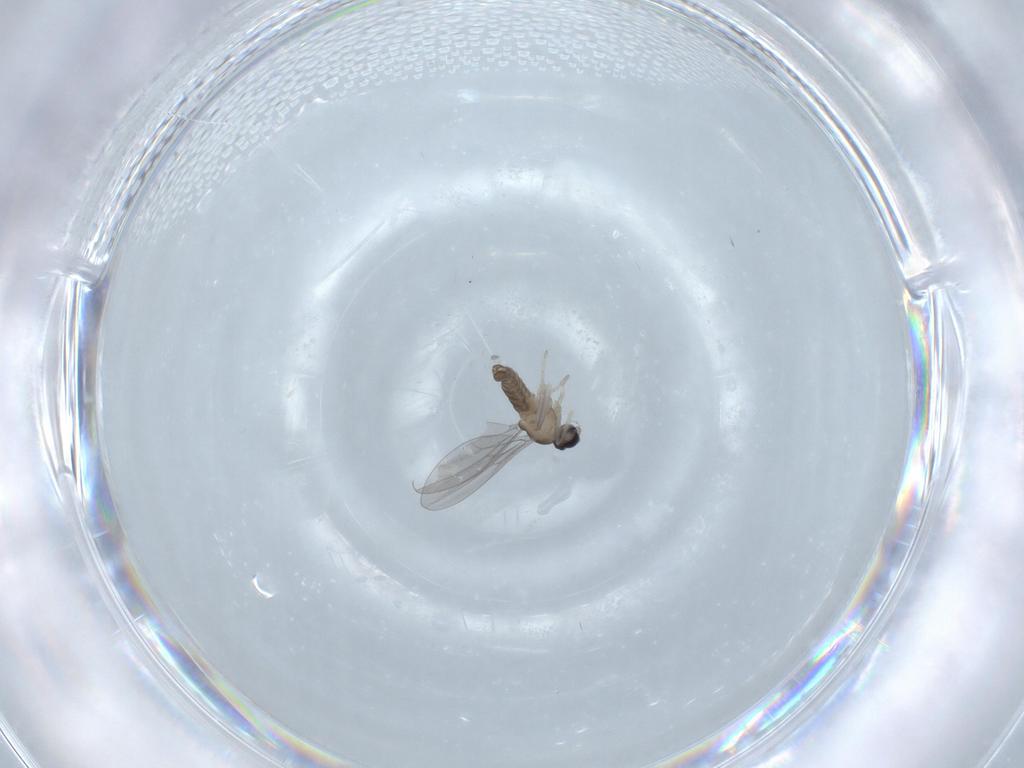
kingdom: Animalia
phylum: Arthropoda
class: Insecta
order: Diptera
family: Cecidomyiidae
